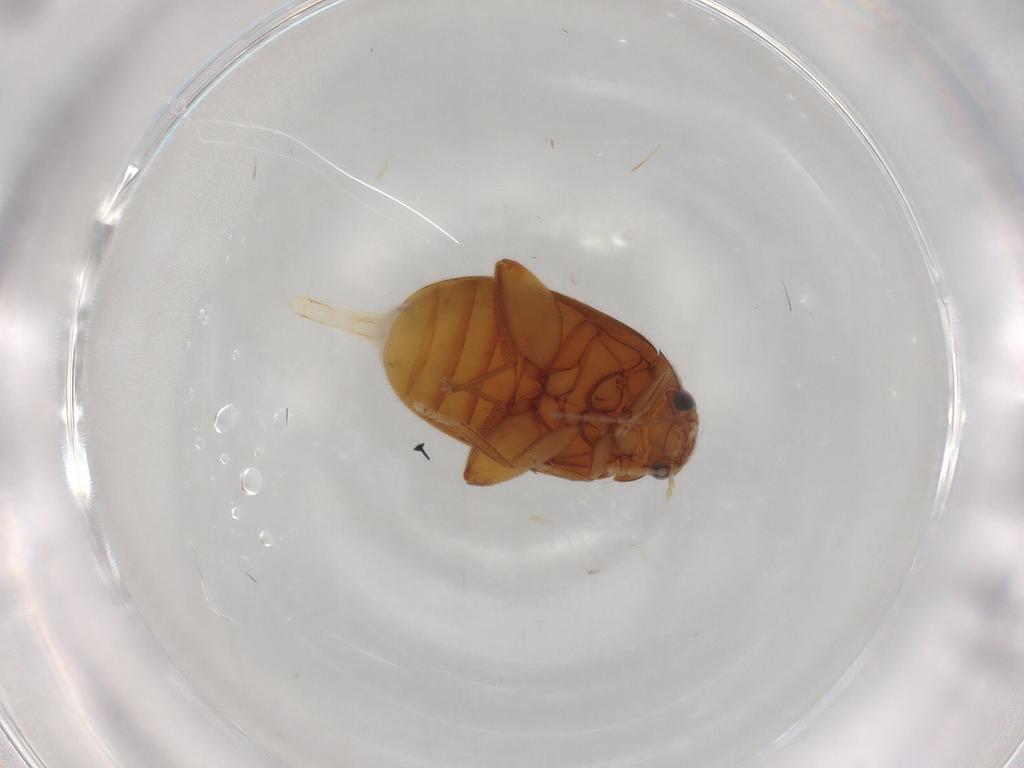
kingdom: Animalia
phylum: Arthropoda
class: Insecta
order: Coleoptera
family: Scirtidae
